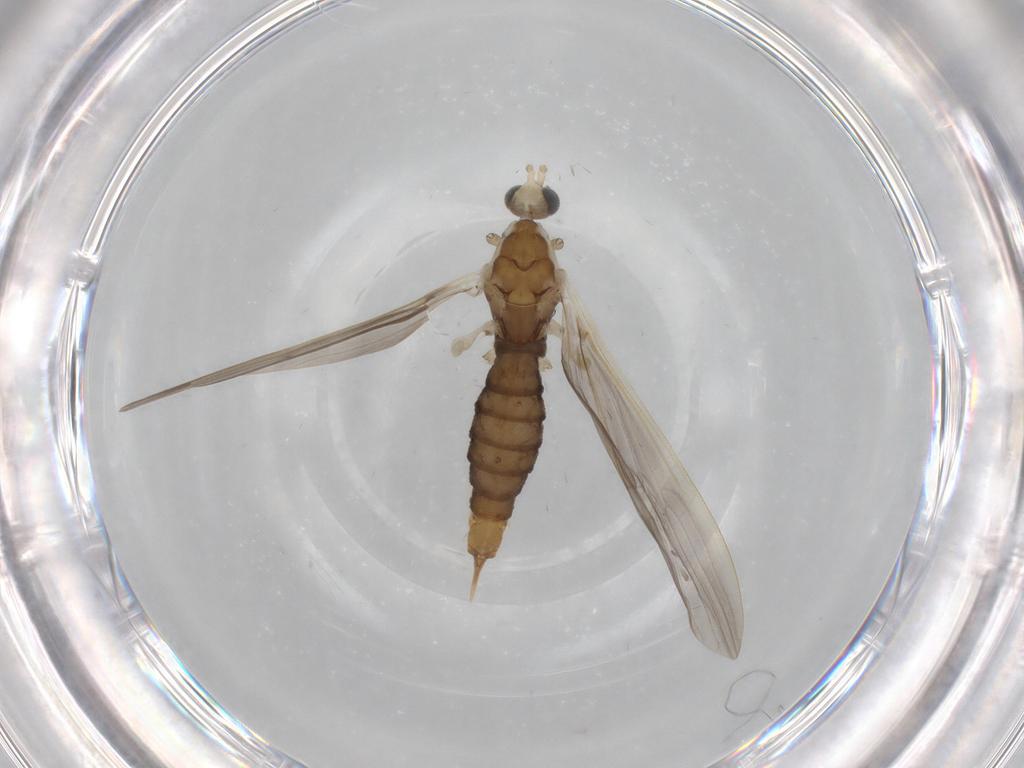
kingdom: Animalia
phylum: Arthropoda
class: Insecta
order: Diptera
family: Limoniidae
